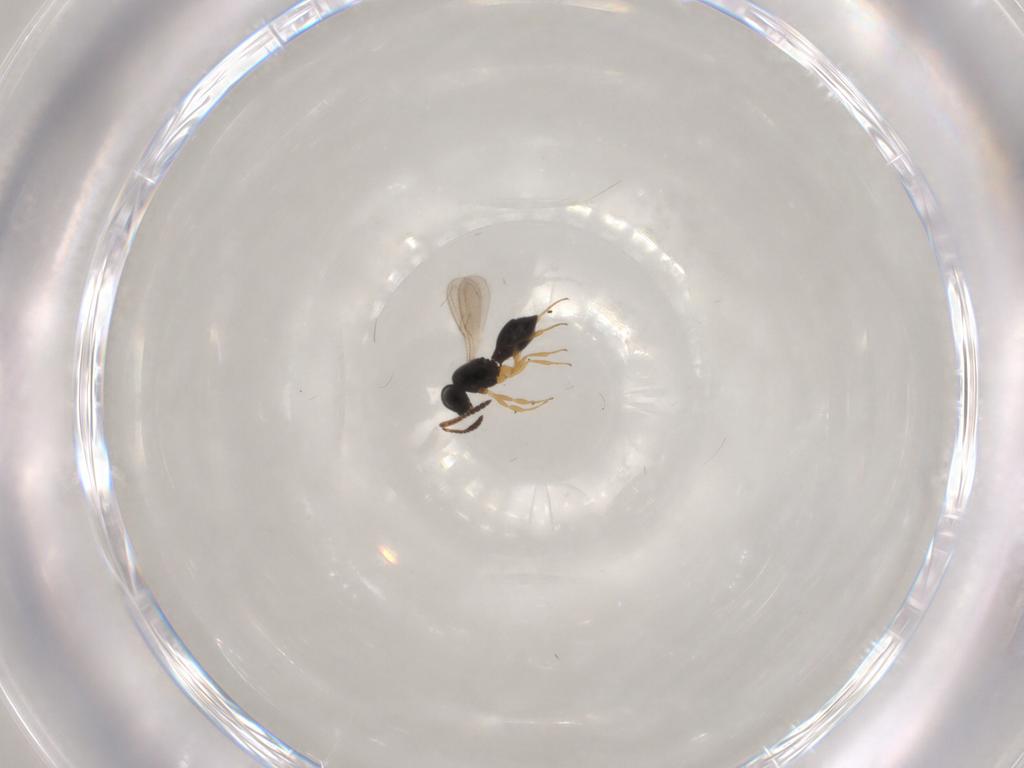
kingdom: Animalia
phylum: Arthropoda
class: Insecta
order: Hymenoptera
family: Scelionidae
